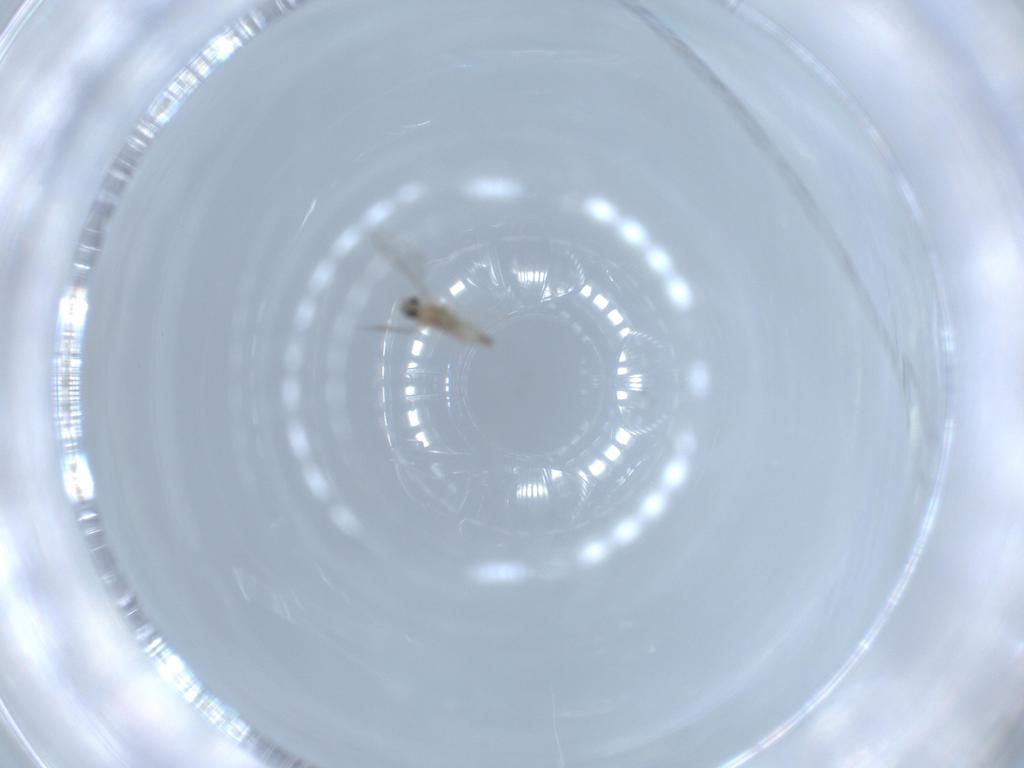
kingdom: Animalia
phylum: Arthropoda
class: Insecta
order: Diptera
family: Cecidomyiidae
